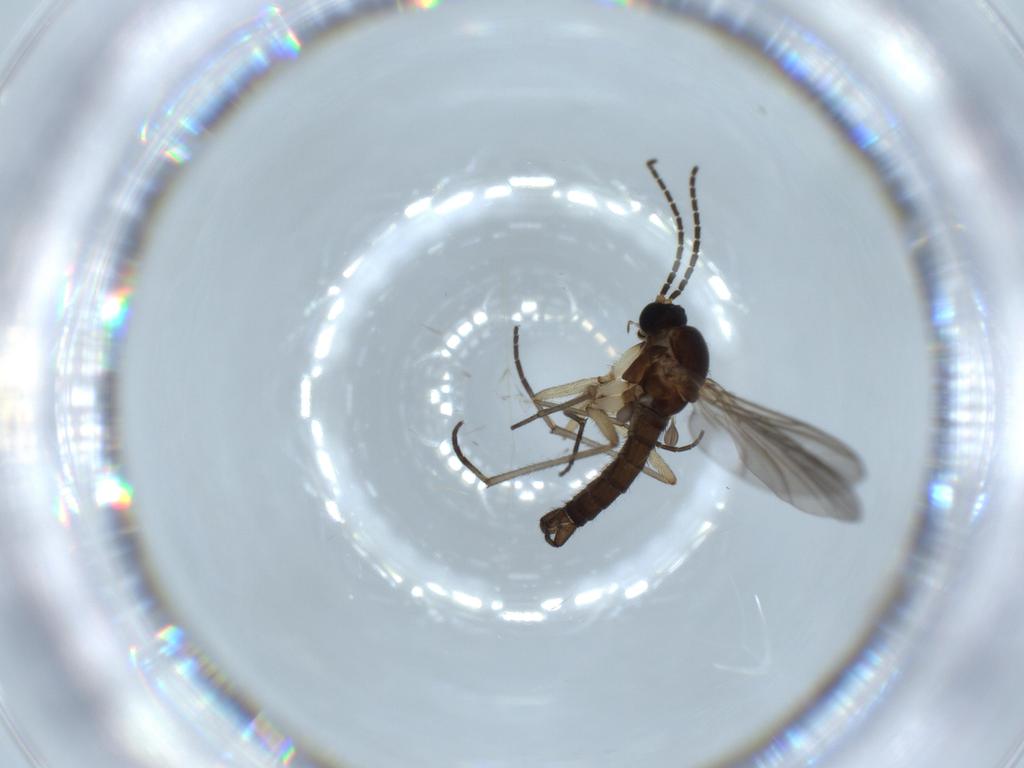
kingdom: Animalia
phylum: Arthropoda
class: Insecta
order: Diptera
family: Sciaridae
